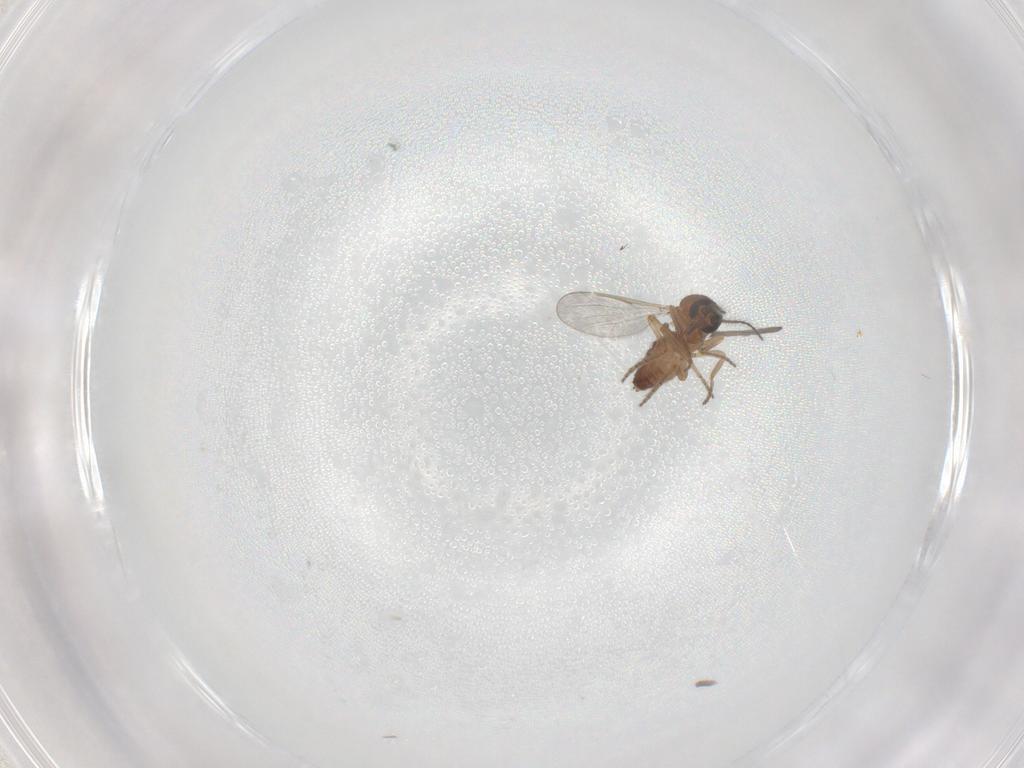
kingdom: Animalia
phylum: Arthropoda
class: Insecta
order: Diptera
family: Ceratopogonidae
